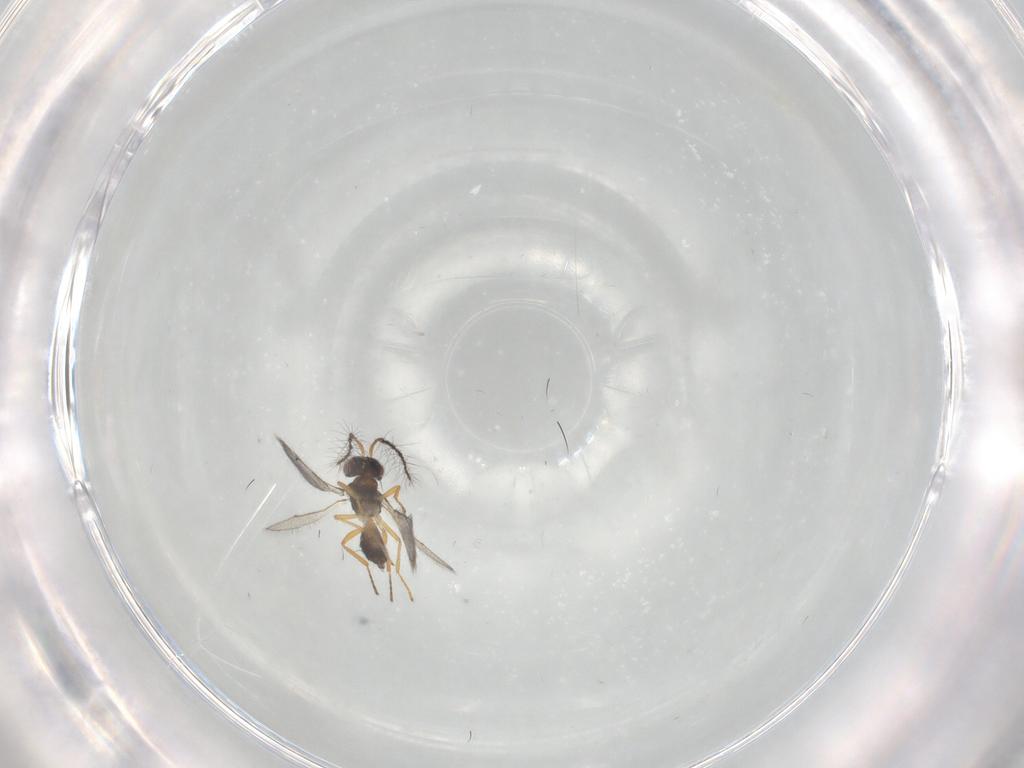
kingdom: Animalia
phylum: Arthropoda
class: Insecta
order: Hymenoptera
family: Eulophidae
